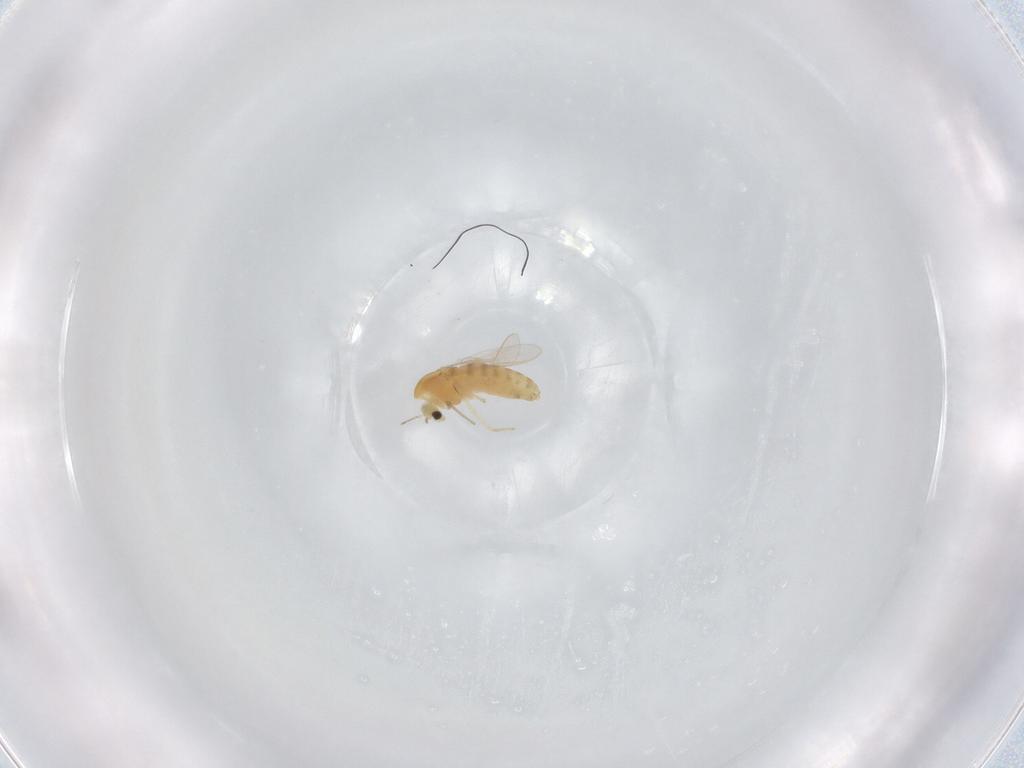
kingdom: Animalia
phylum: Arthropoda
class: Insecta
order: Diptera
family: Chironomidae
